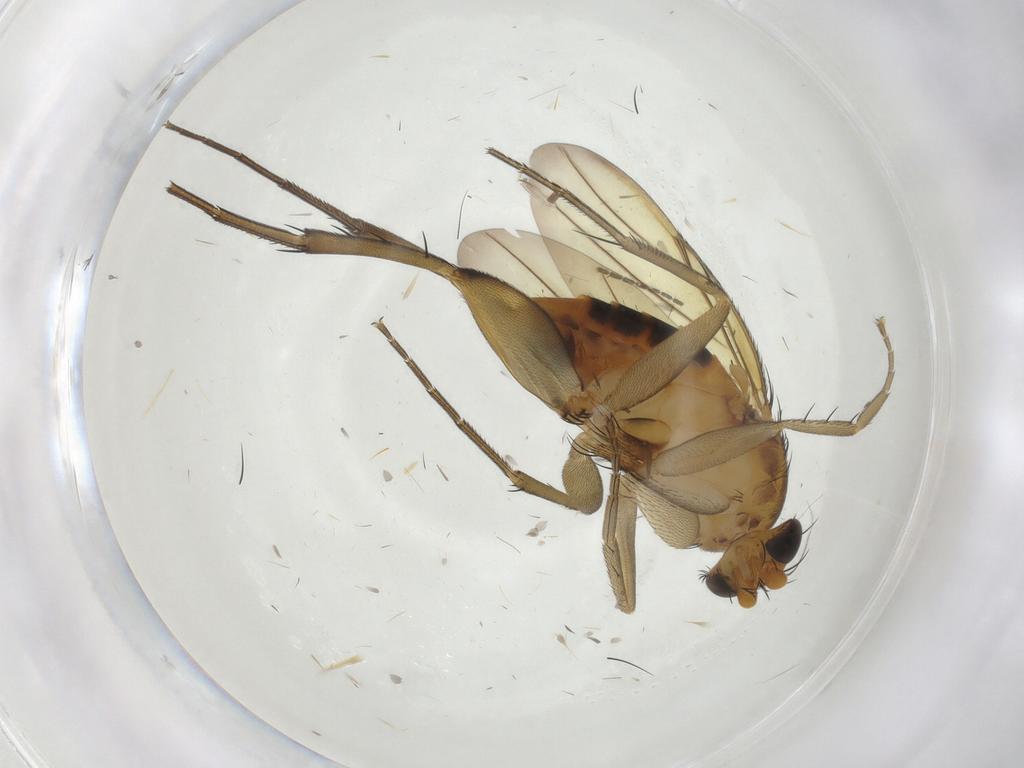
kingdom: Animalia
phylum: Arthropoda
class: Insecta
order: Diptera
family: Phoridae
